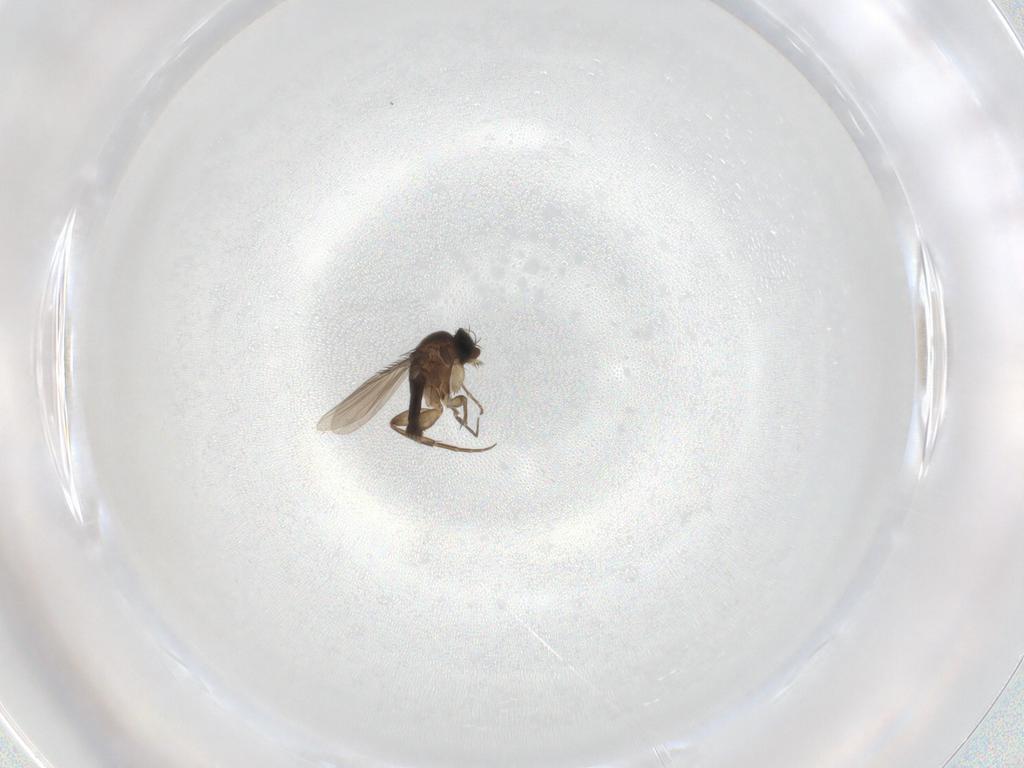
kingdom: Animalia
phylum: Arthropoda
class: Insecta
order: Diptera
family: Phoridae
